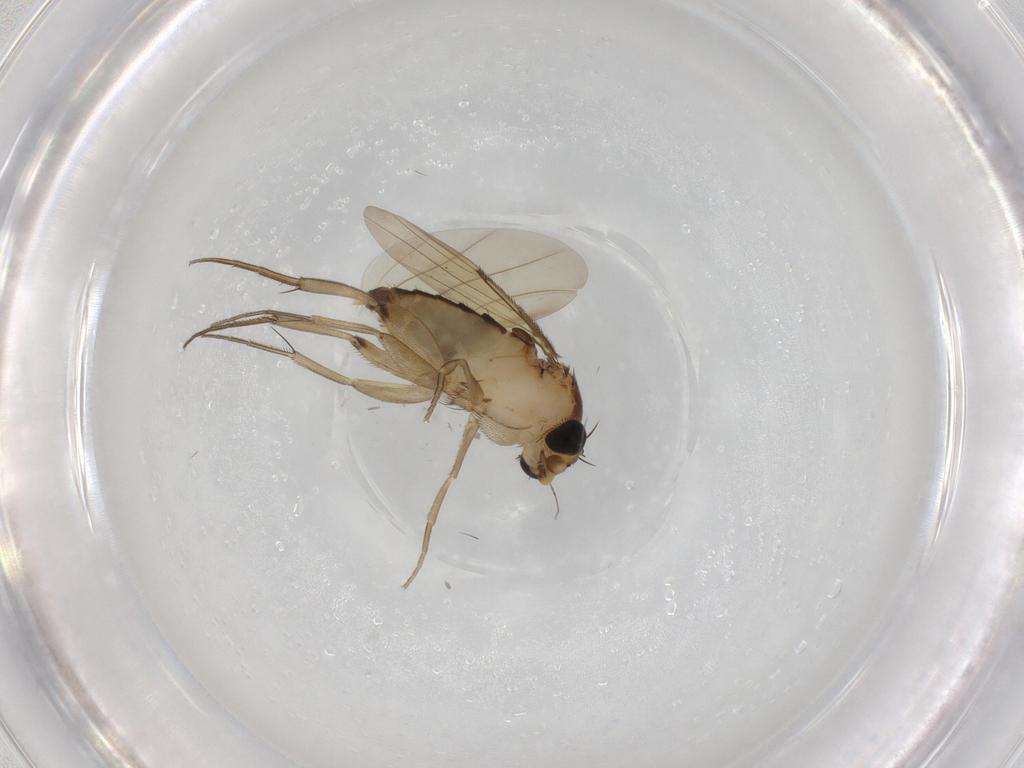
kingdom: Animalia
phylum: Arthropoda
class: Insecta
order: Diptera
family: Phoridae
